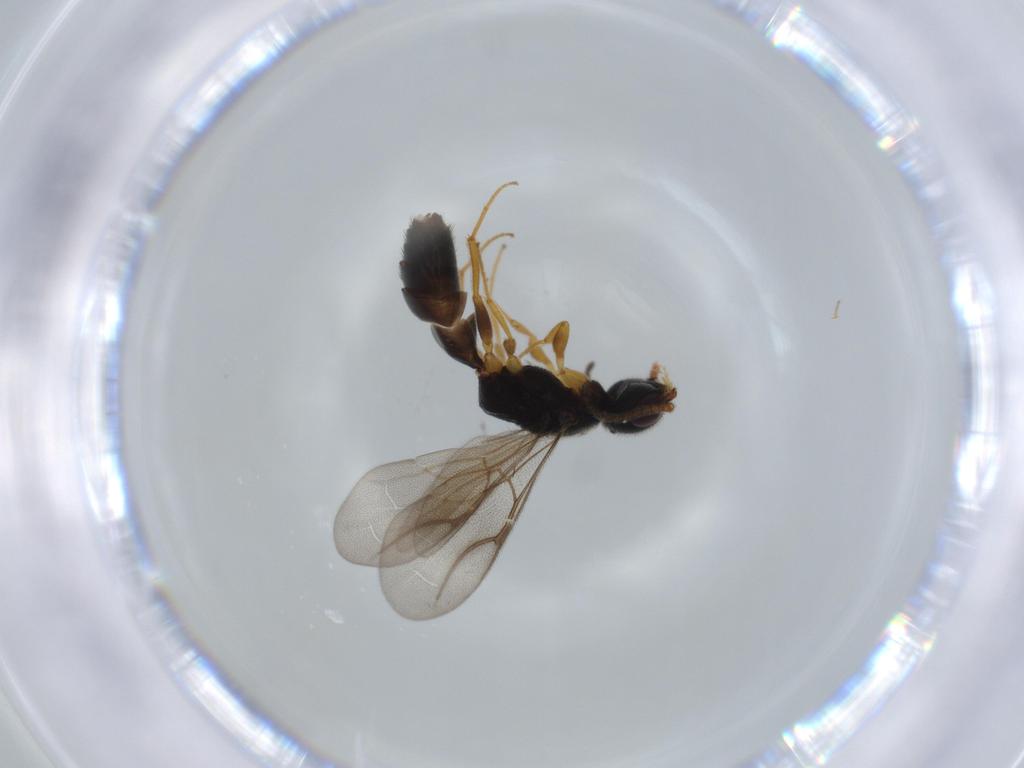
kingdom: Animalia
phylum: Arthropoda
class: Insecta
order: Hymenoptera
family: Bethylidae
